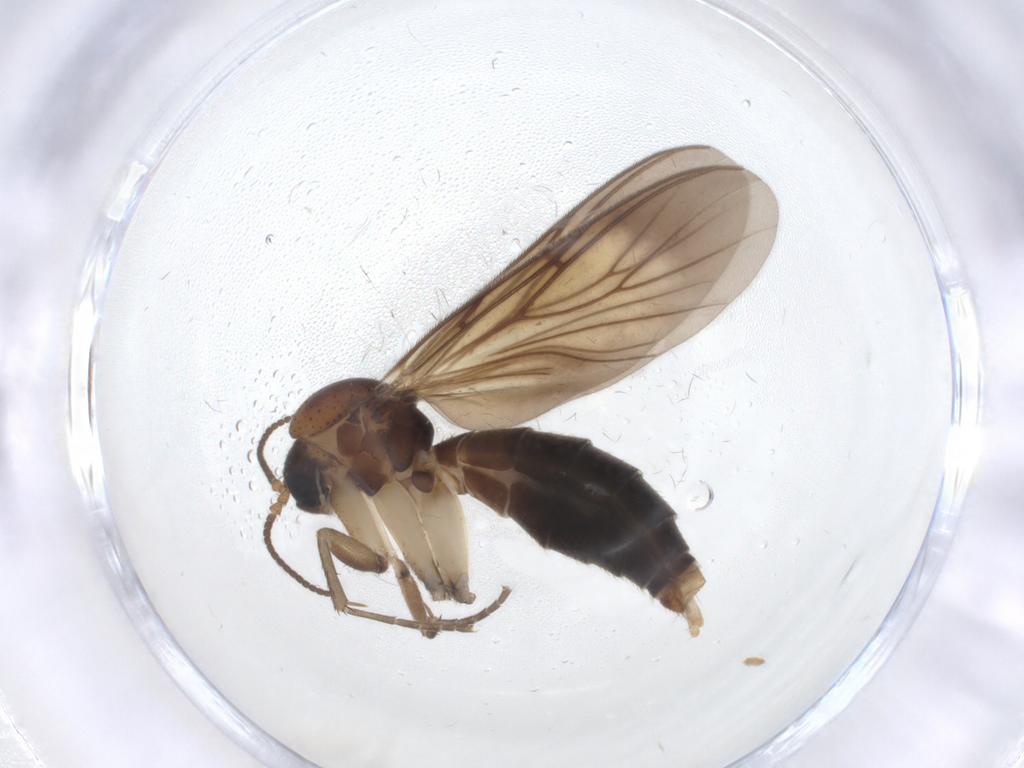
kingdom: Animalia
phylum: Arthropoda
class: Insecta
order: Diptera
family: Mycetophilidae
